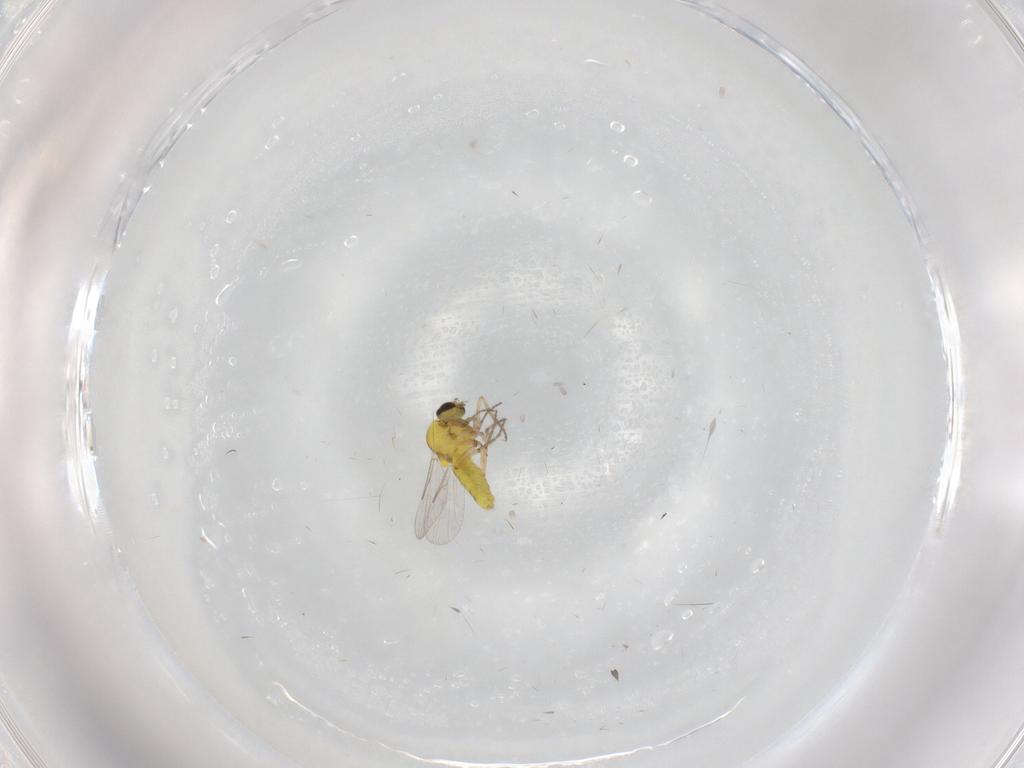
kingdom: Animalia
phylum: Arthropoda
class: Insecta
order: Diptera
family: Ceratopogonidae
